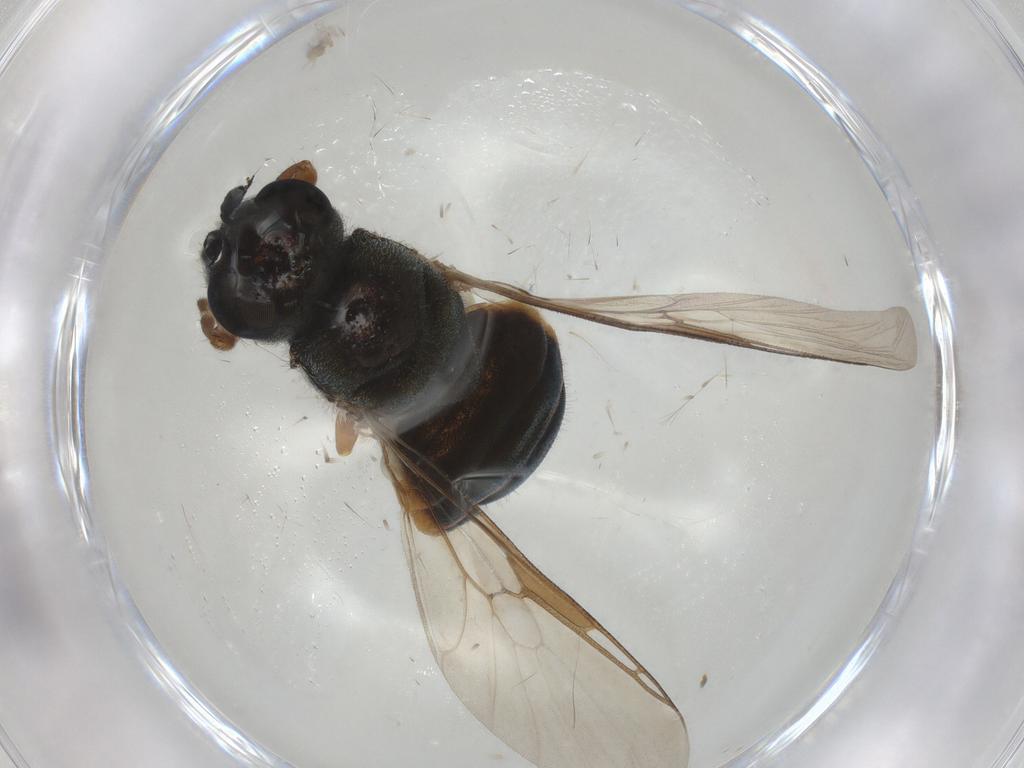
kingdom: Animalia
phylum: Arthropoda
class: Insecta
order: Diptera
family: Stratiomyidae
